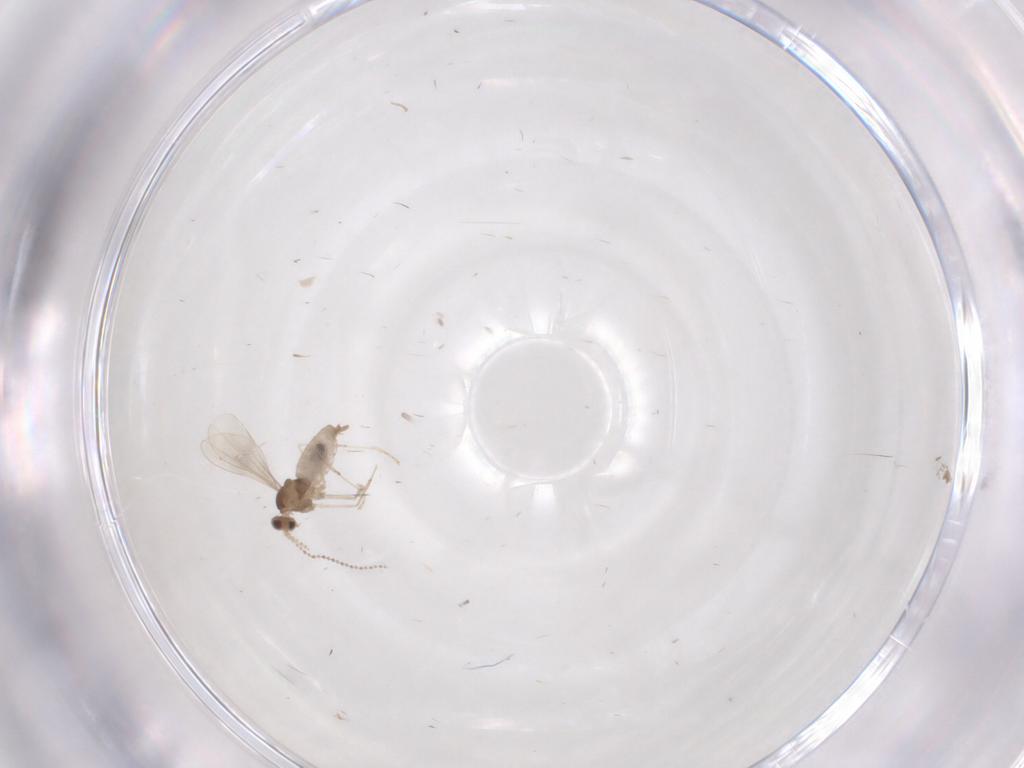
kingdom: Animalia
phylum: Arthropoda
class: Insecta
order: Diptera
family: Cecidomyiidae
